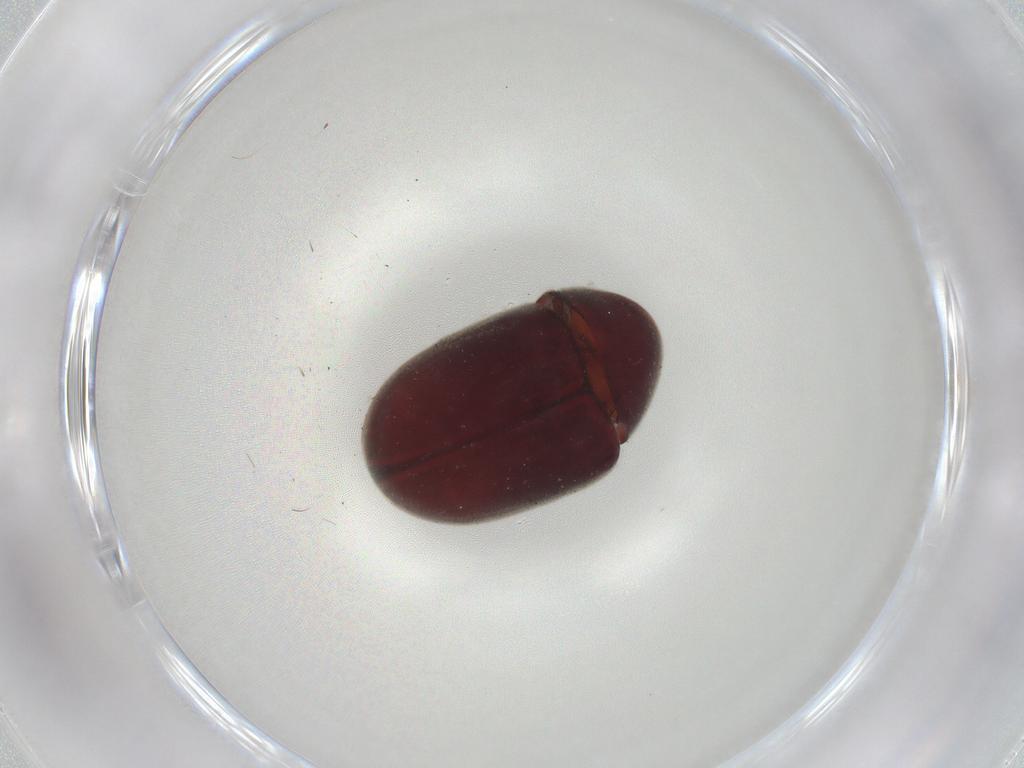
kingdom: Animalia
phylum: Arthropoda
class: Insecta
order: Coleoptera
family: Ptinidae
